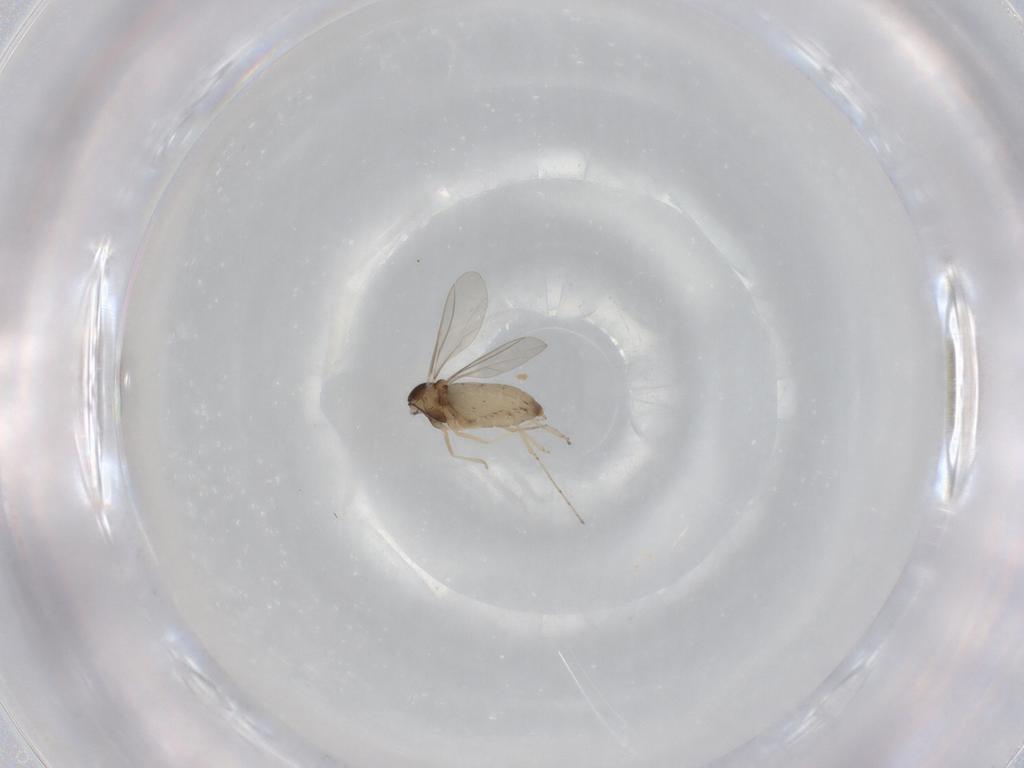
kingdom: Animalia
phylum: Arthropoda
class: Insecta
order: Diptera
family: Cecidomyiidae
